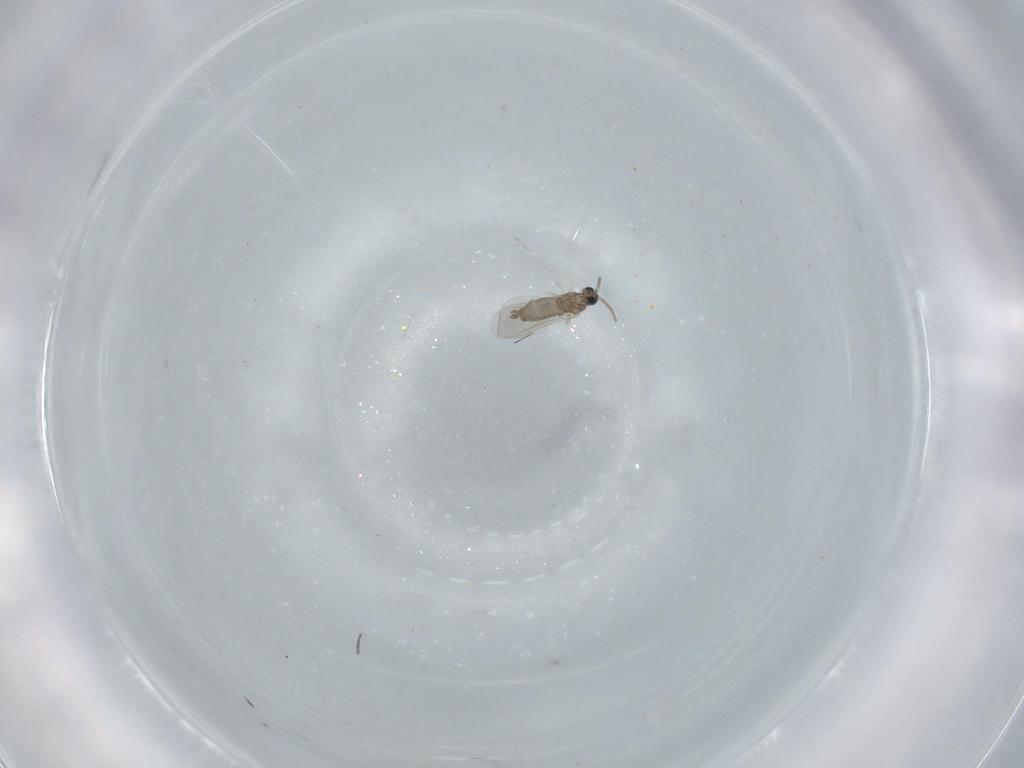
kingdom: Animalia
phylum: Arthropoda
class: Insecta
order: Diptera
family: Cecidomyiidae
